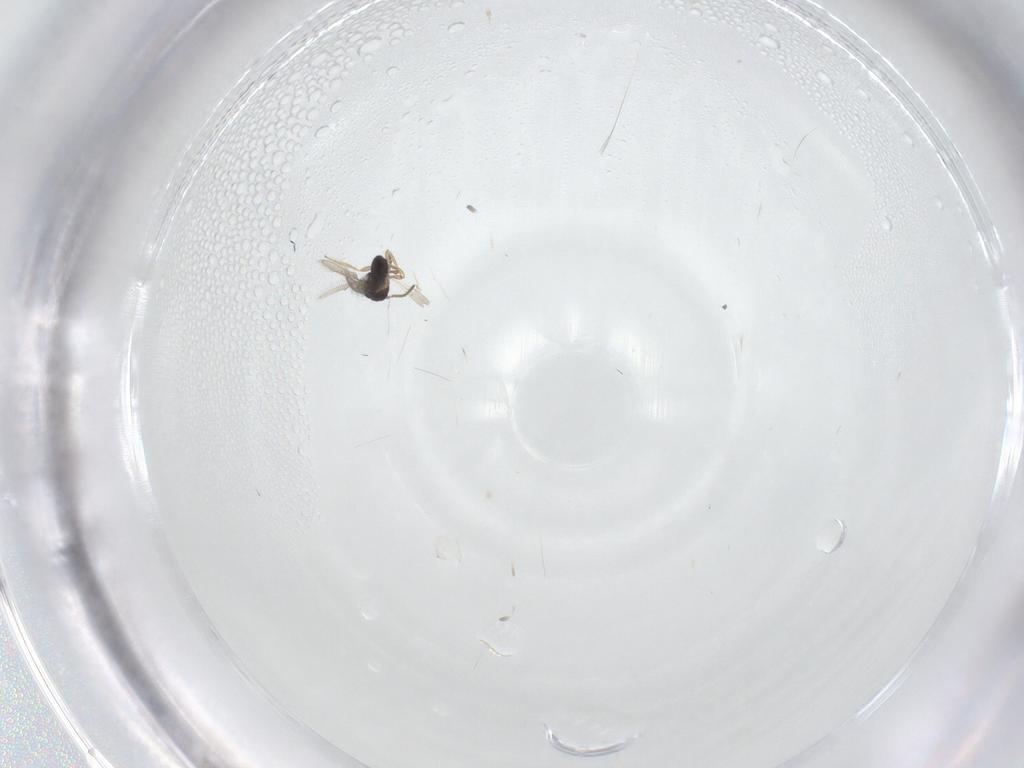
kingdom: Animalia
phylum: Arthropoda
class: Insecta
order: Hymenoptera
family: Scelionidae
